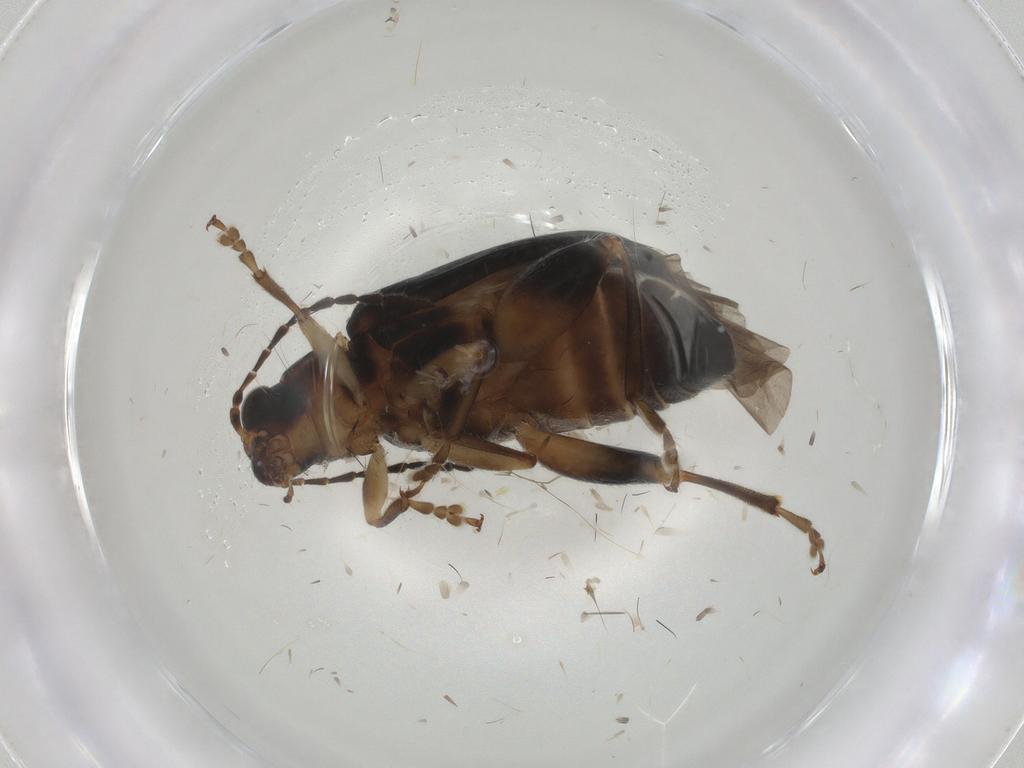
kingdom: Animalia
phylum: Arthropoda
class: Insecta
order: Coleoptera
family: Chrysomelidae
